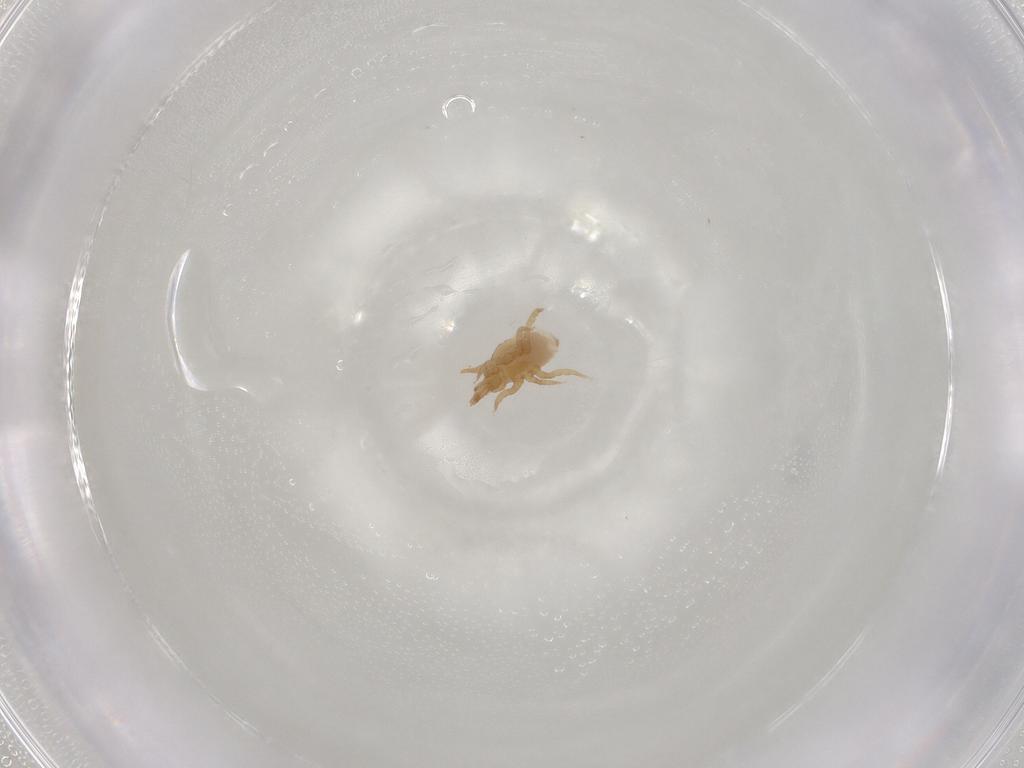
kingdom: Animalia
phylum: Arthropoda
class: Arachnida
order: Mesostigmata
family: Parasitidae
